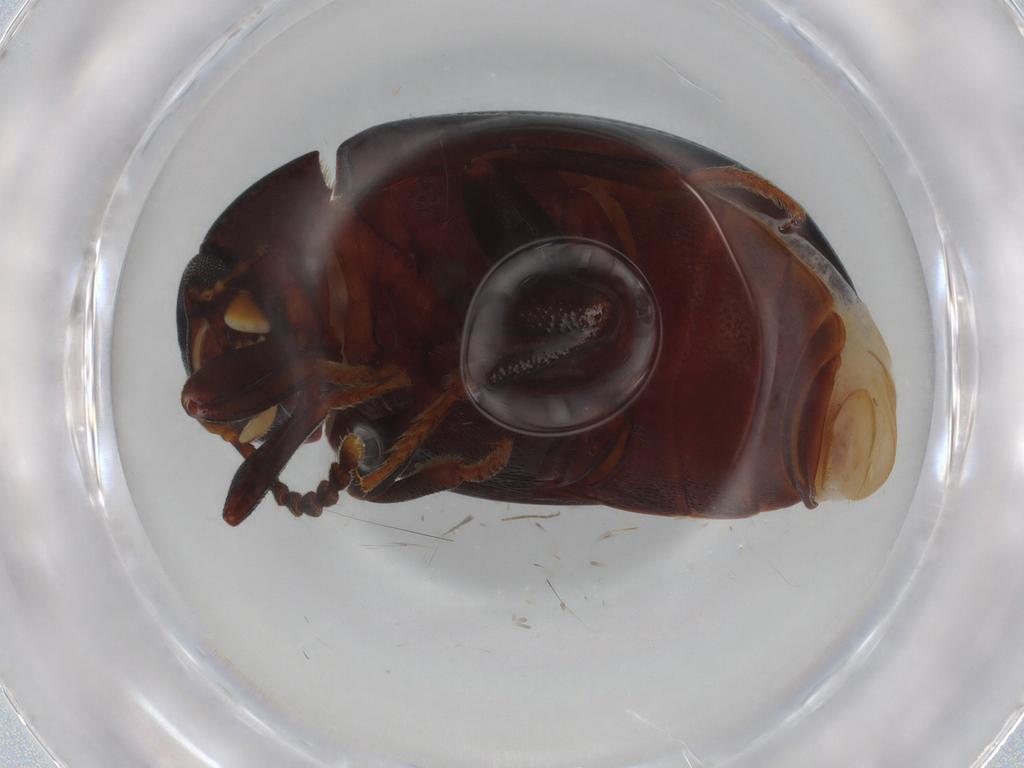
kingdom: Animalia
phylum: Arthropoda
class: Insecta
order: Coleoptera
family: Tenebrionidae
